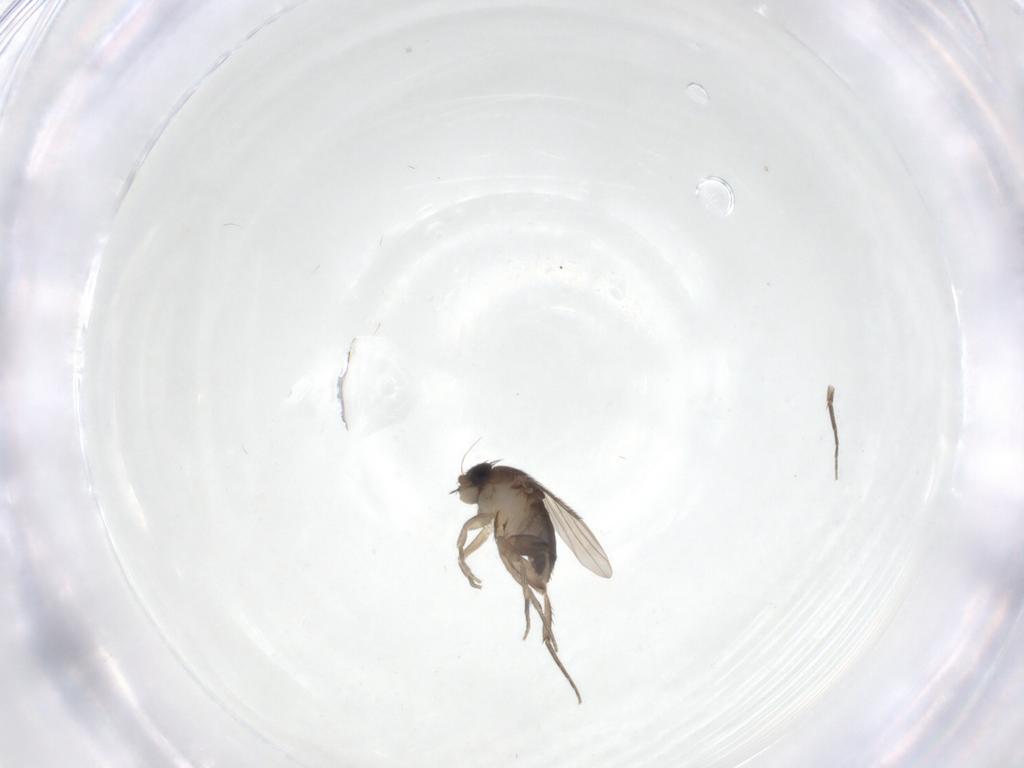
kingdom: Animalia
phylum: Arthropoda
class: Insecta
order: Diptera
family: Phoridae
